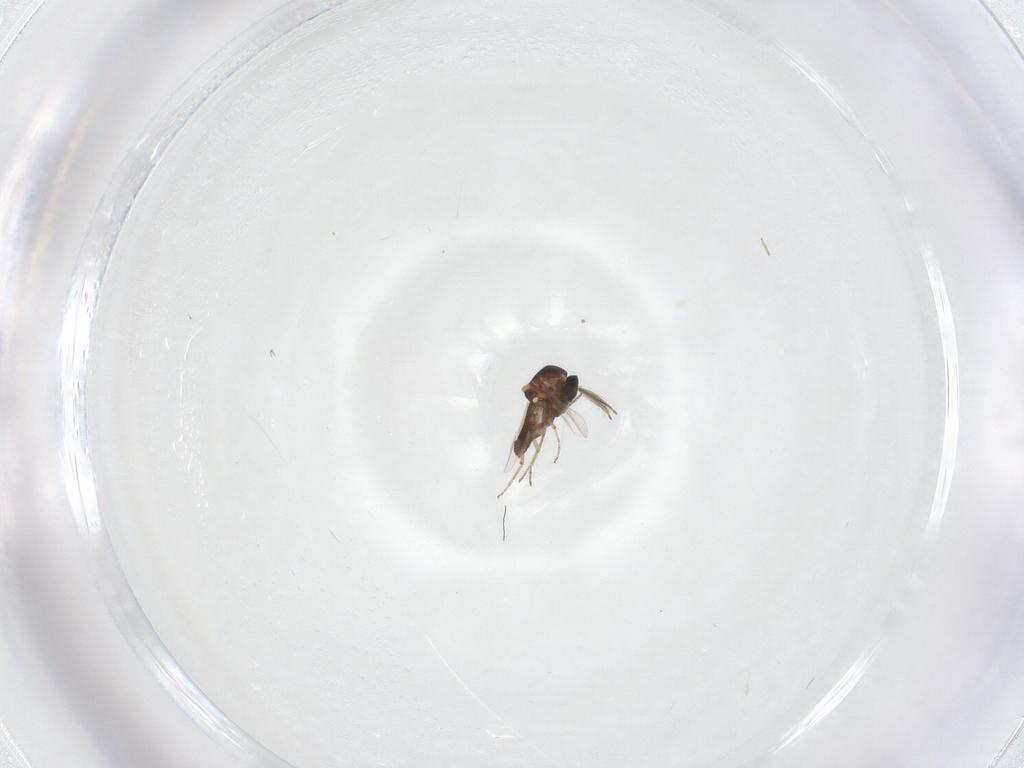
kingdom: Animalia
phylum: Arthropoda
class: Insecta
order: Diptera
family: Ceratopogonidae
